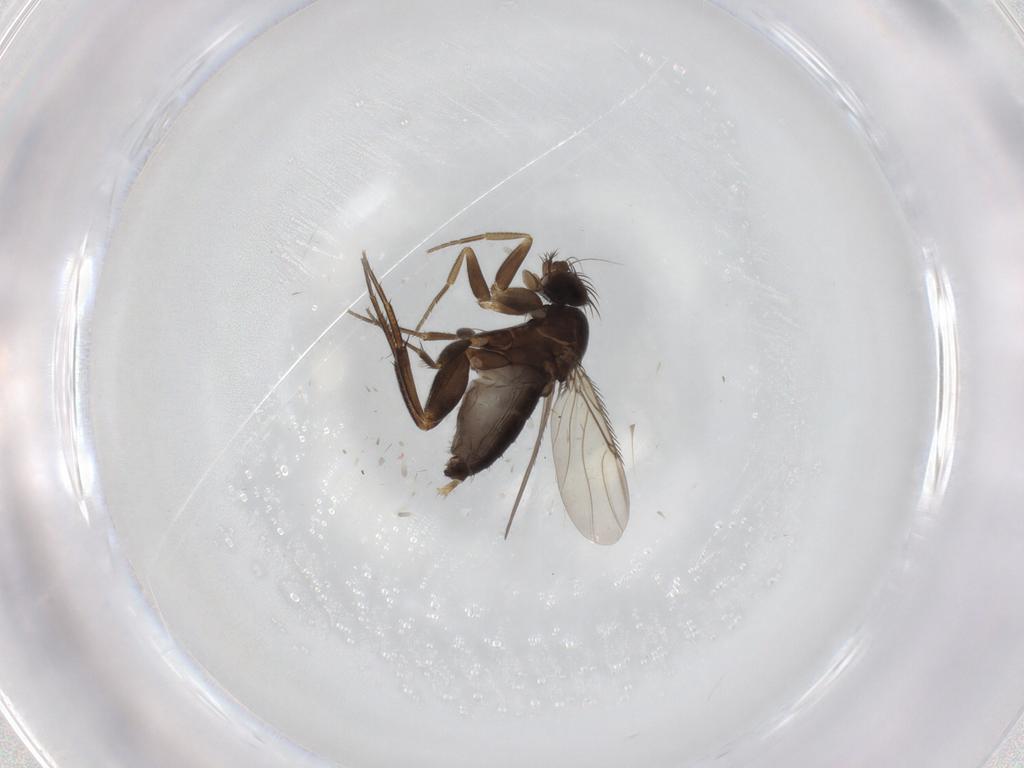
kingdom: Animalia
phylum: Arthropoda
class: Insecta
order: Diptera
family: Phoridae
